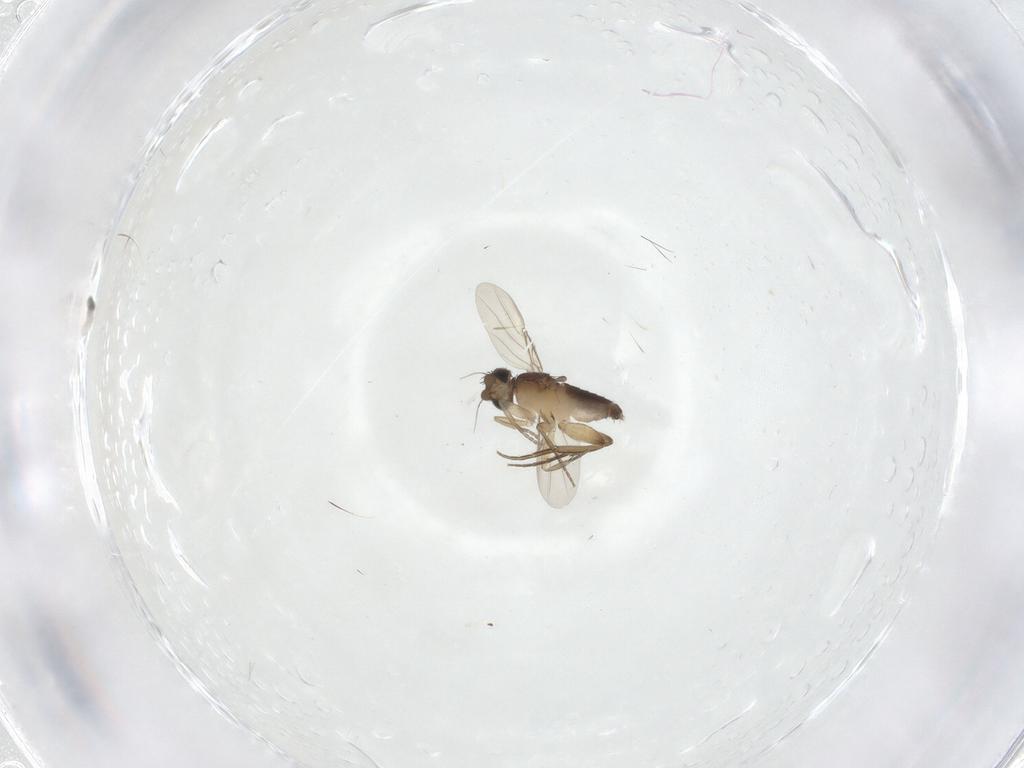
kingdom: Animalia
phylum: Arthropoda
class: Insecta
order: Diptera
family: Phoridae
